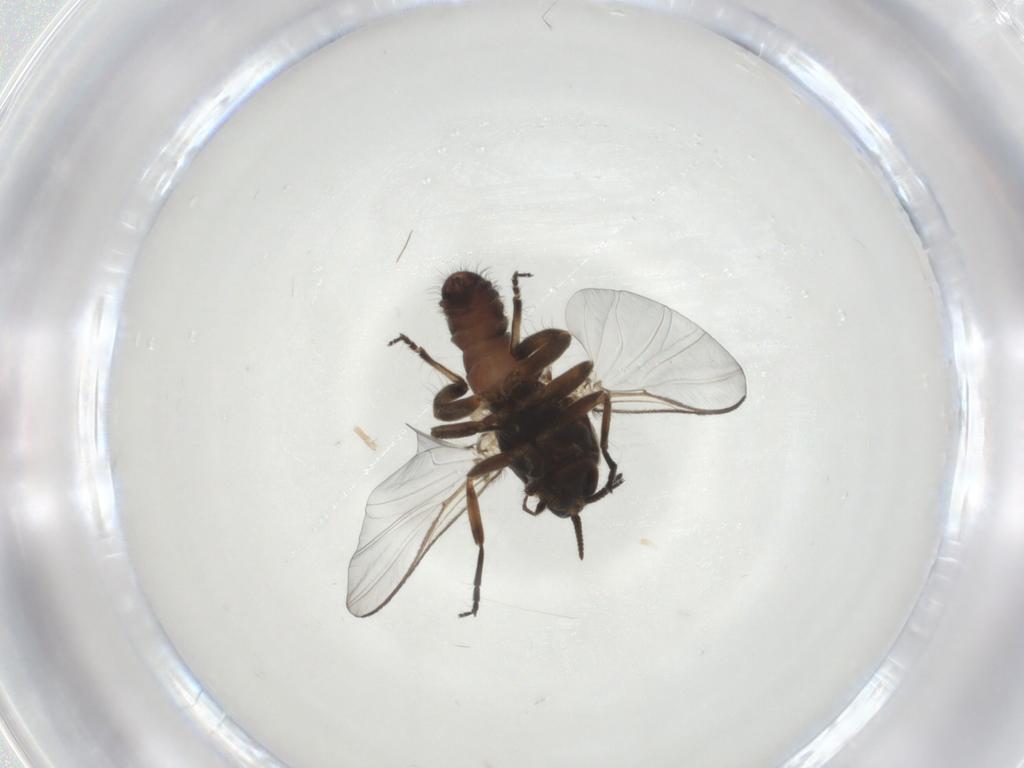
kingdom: Animalia
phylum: Arthropoda
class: Insecta
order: Diptera
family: Chironomidae
